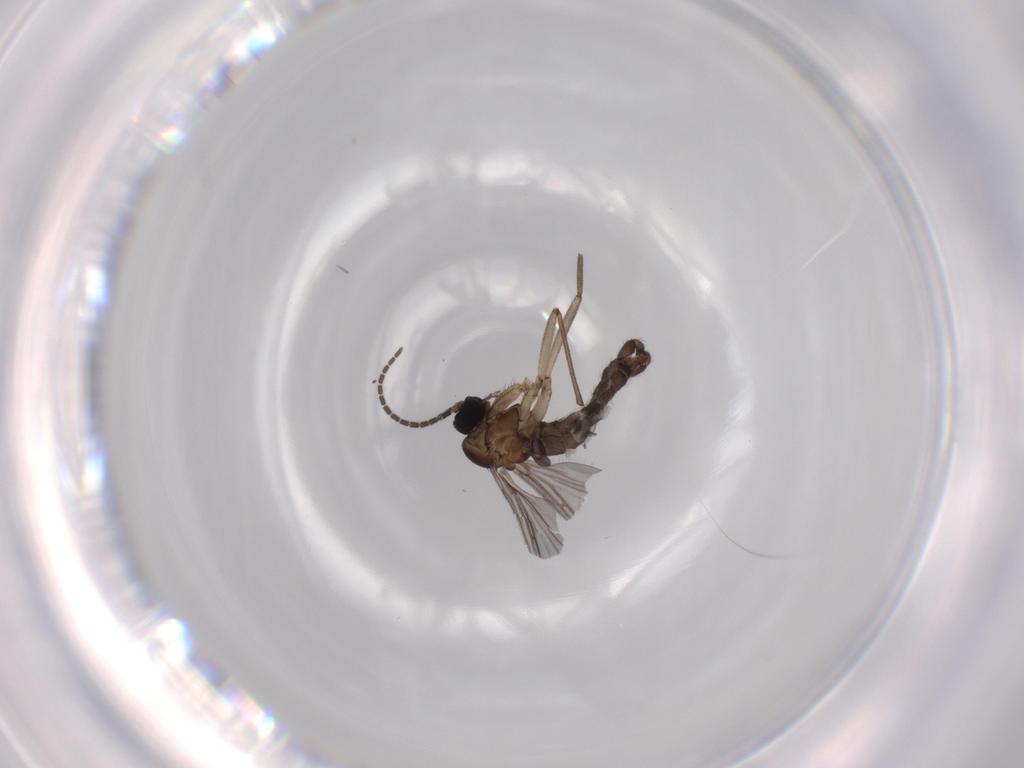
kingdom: Animalia
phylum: Arthropoda
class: Insecta
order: Diptera
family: Sciaridae
